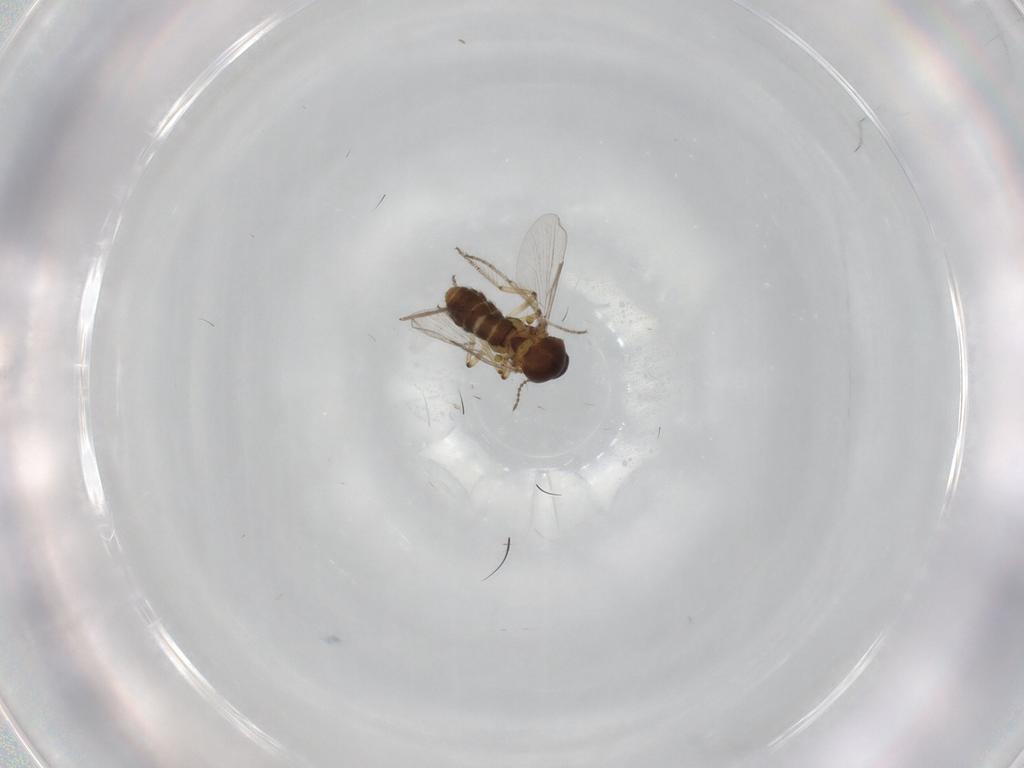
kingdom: Animalia
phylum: Arthropoda
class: Insecta
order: Diptera
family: Ceratopogonidae
